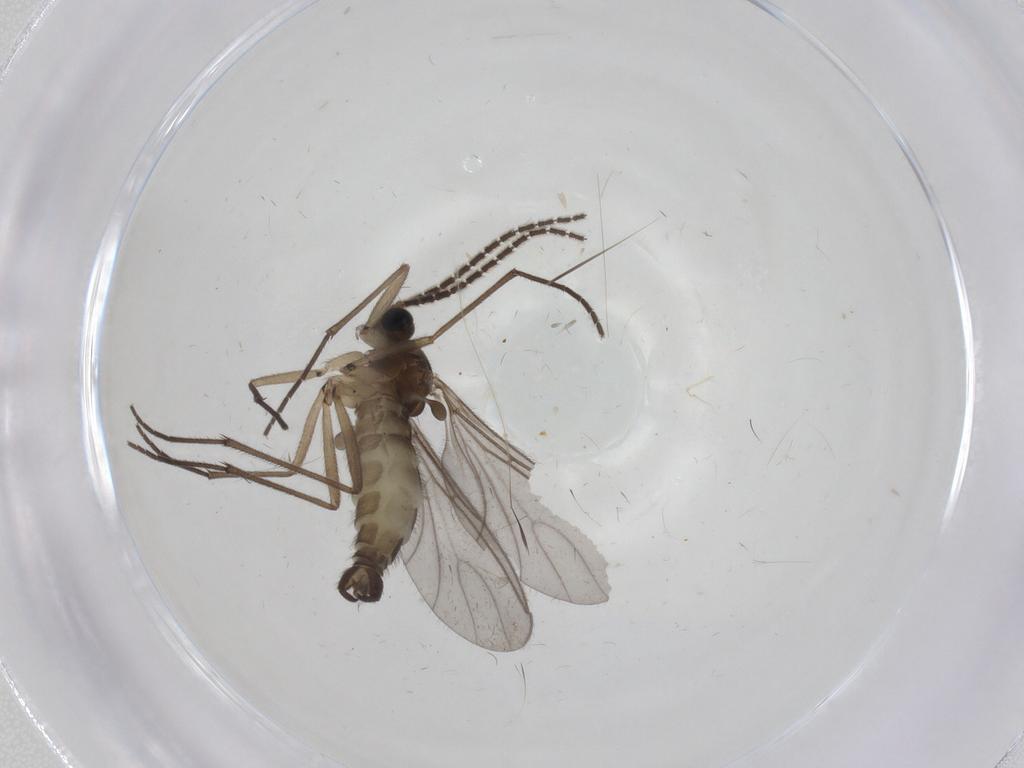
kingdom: Animalia
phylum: Arthropoda
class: Insecta
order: Diptera
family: Sciaridae
